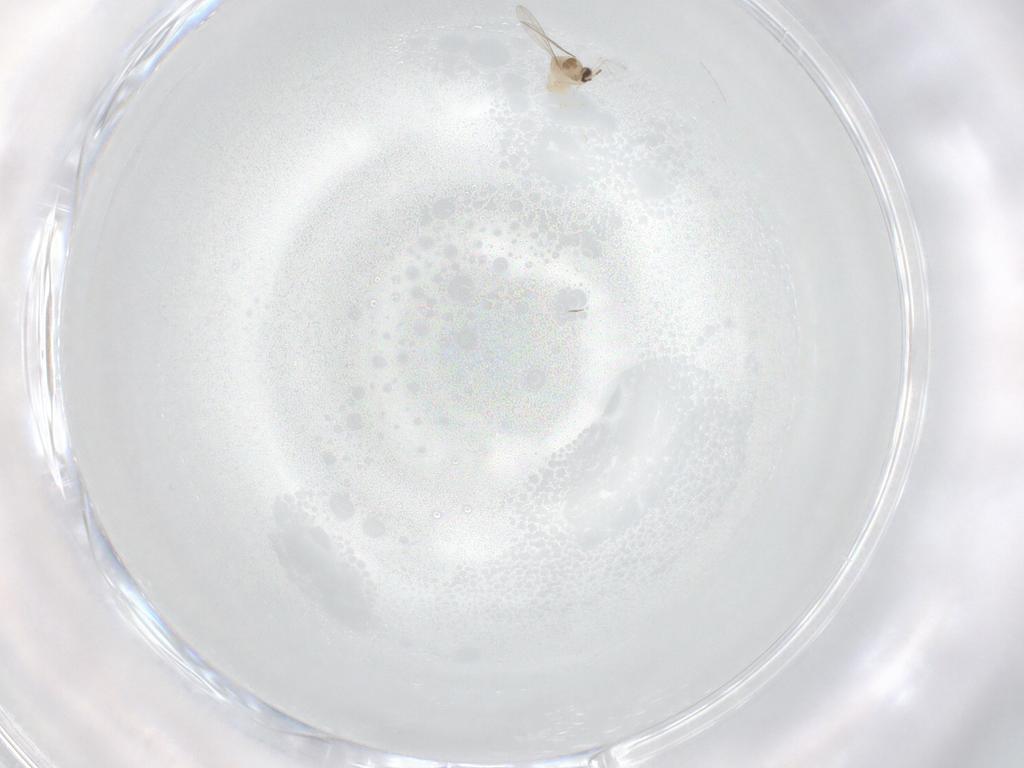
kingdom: Animalia
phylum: Arthropoda
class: Insecta
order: Diptera
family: Cecidomyiidae
